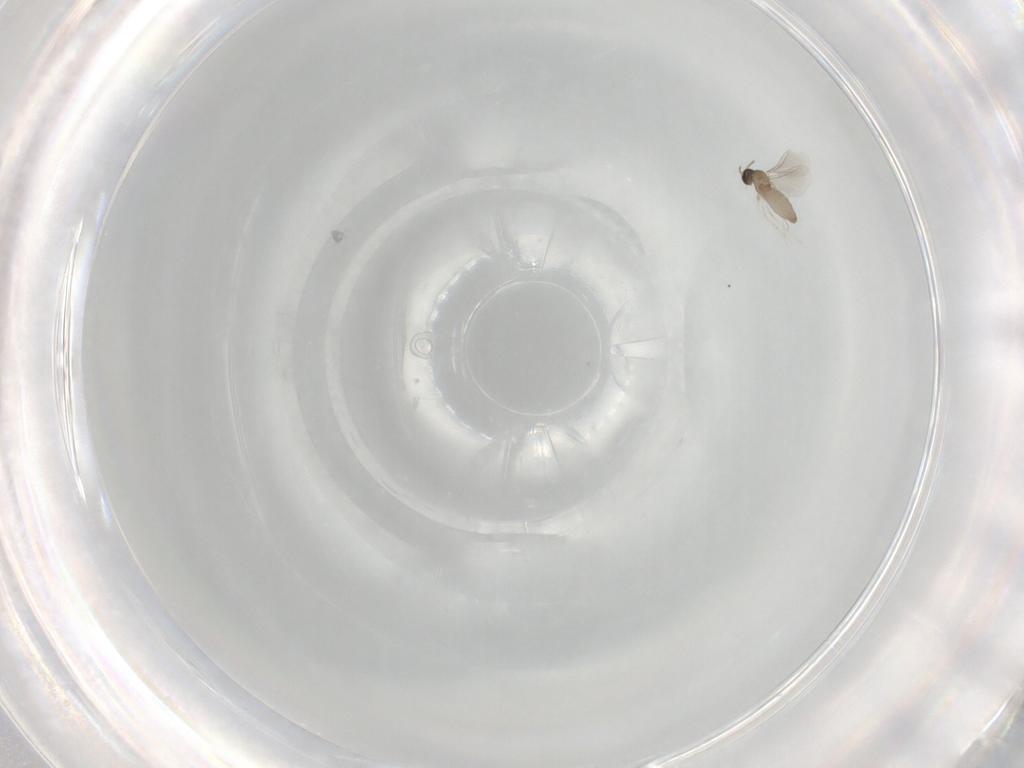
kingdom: Animalia
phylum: Arthropoda
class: Insecta
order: Diptera
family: Cecidomyiidae
